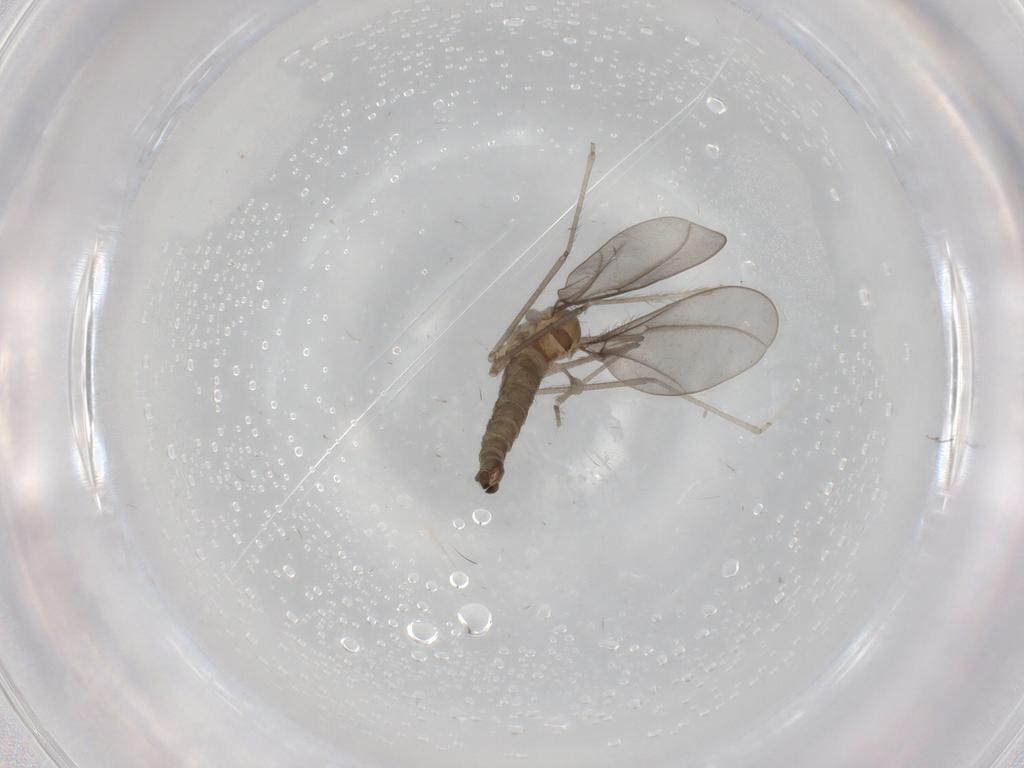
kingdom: Animalia
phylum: Arthropoda
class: Insecta
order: Diptera
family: Cecidomyiidae
